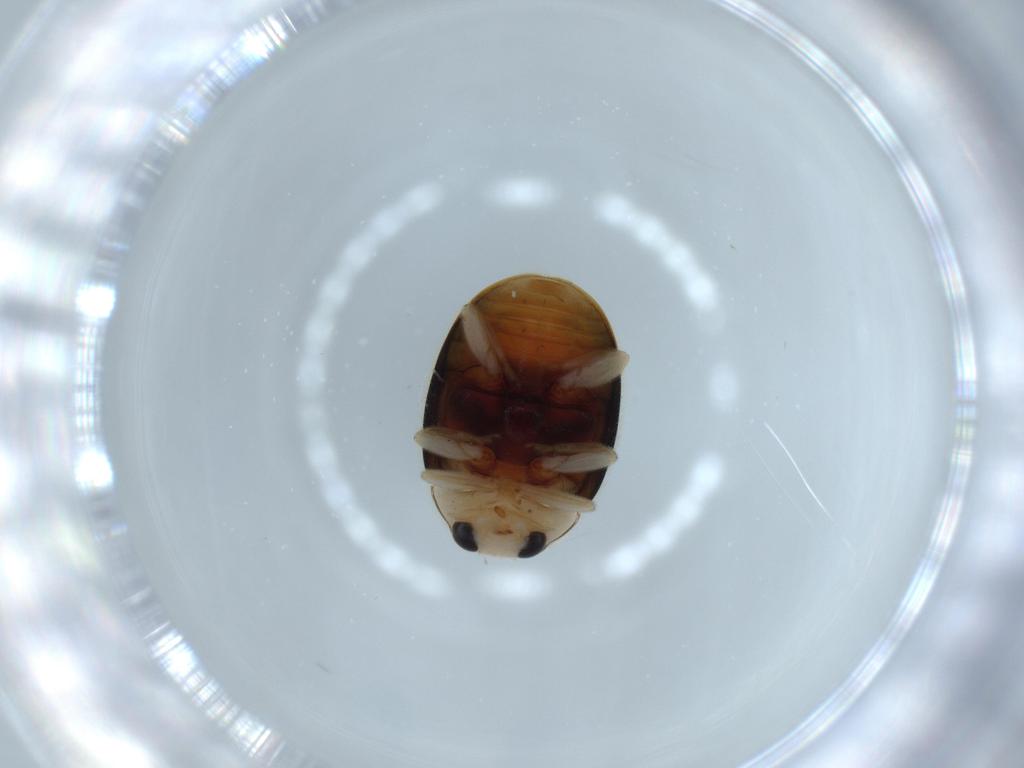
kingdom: Animalia
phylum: Arthropoda
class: Insecta
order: Coleoptera
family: Coccinellidae
